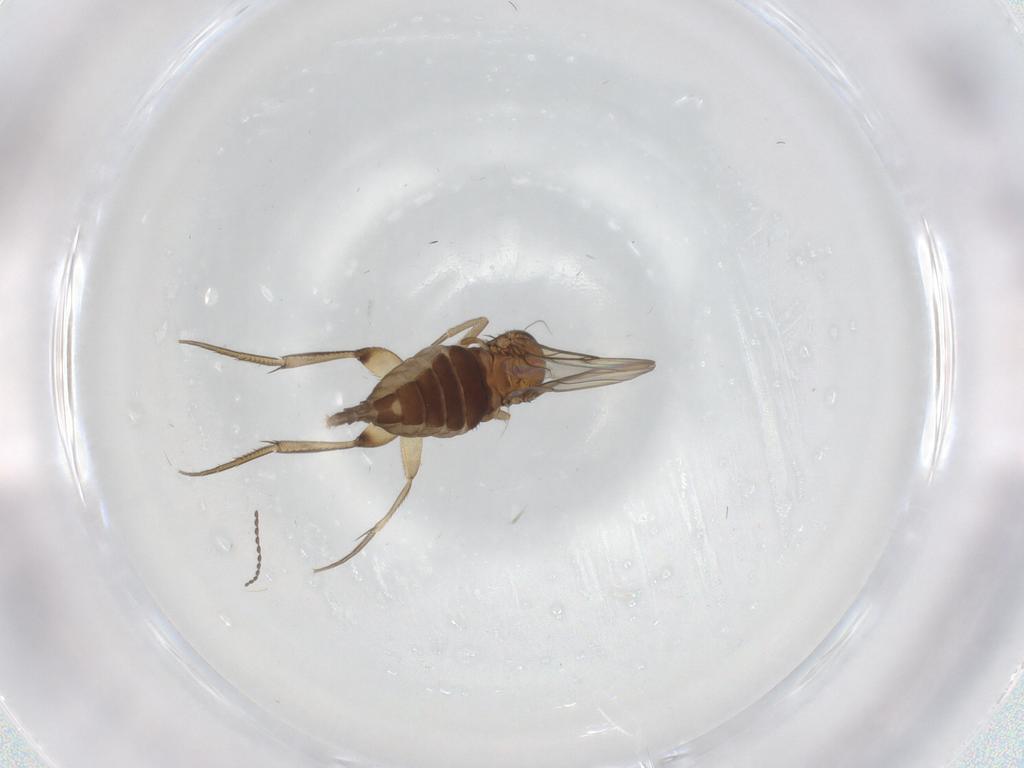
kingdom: Animalia
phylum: Arthropoda
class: Insecta
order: Diptera
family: Phoridae
